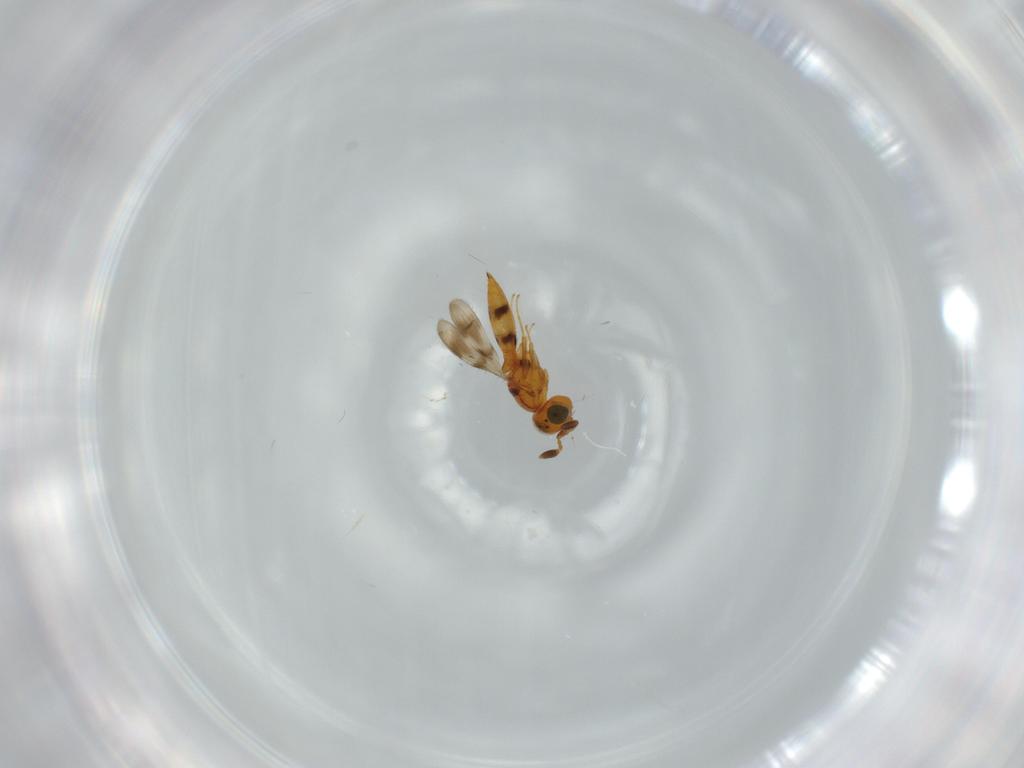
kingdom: Animalia
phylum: Arthropoda
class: Insecta
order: Hymenoptera
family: Scelionidae
